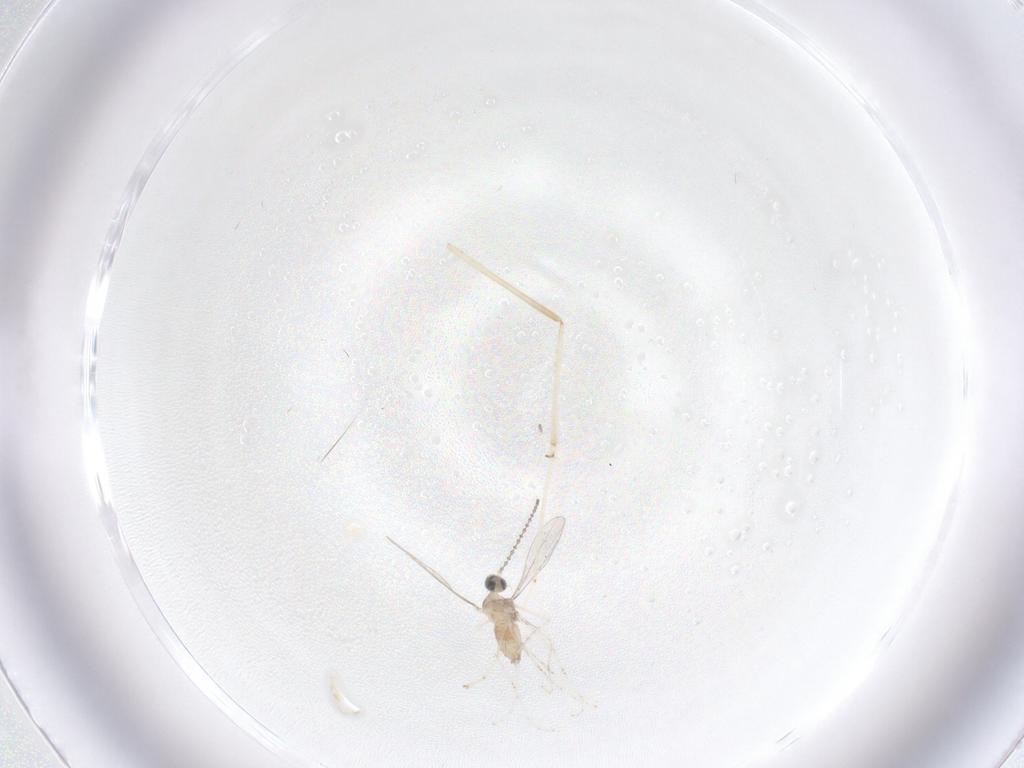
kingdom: Animalia
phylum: Arthropoda
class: Insecta
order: Diptera
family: Cecidomyiidae
